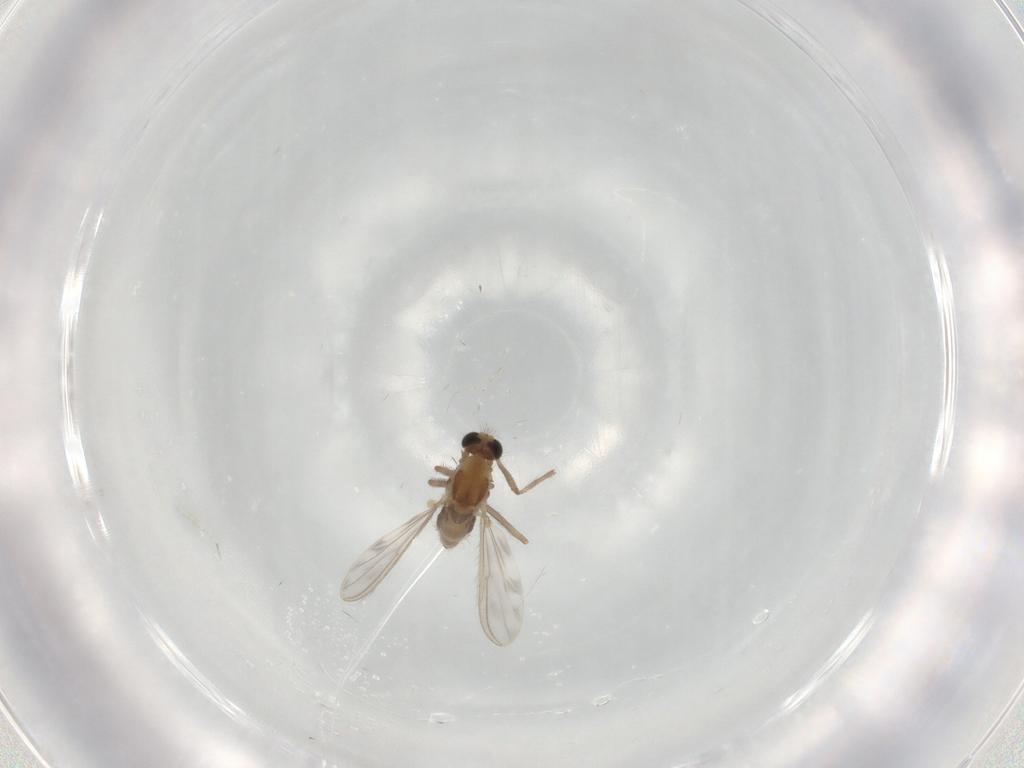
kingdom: Animalia
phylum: Arthropoda
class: Insecta
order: Diptera
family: Chironomidae
